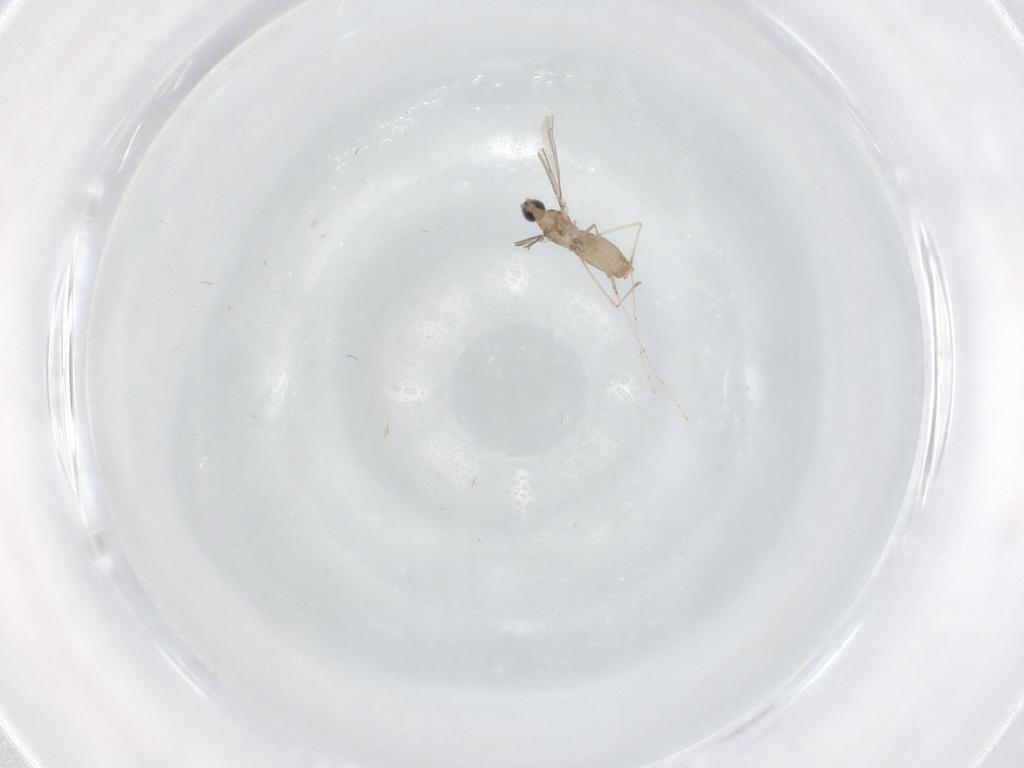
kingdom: Animalia
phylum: Arthropoda
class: Insecta
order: Diptera
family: Cecidomyiidae
